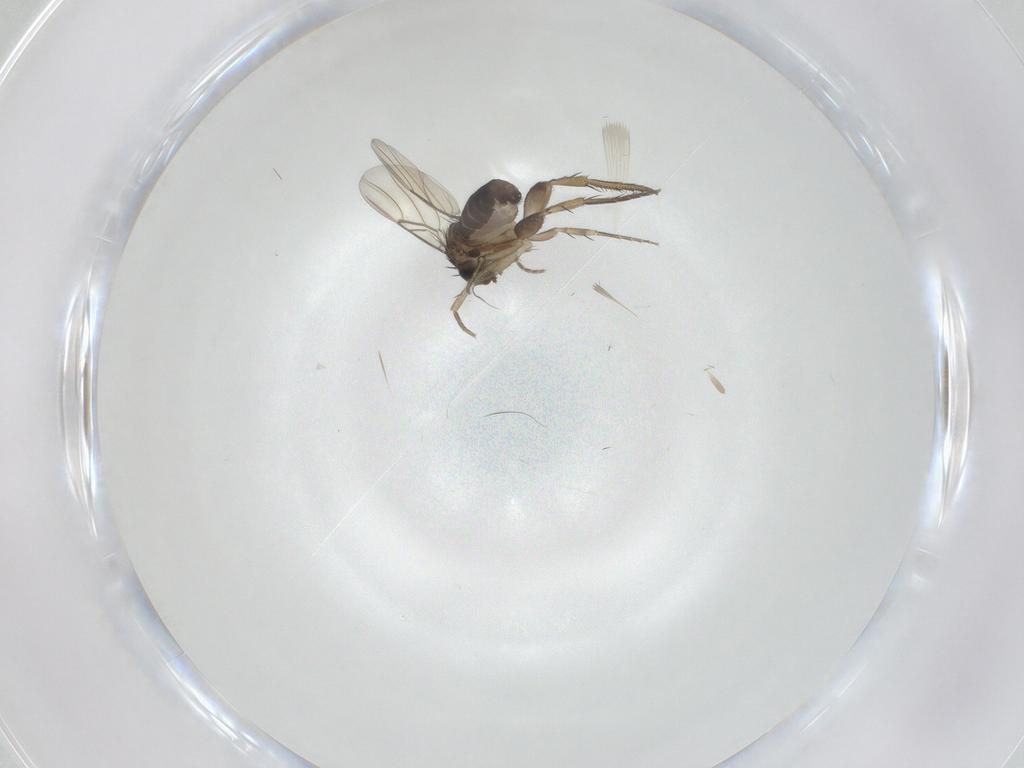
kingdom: Animalia
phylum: Arthropoda
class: Insecta
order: Diptera
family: Phoridae
